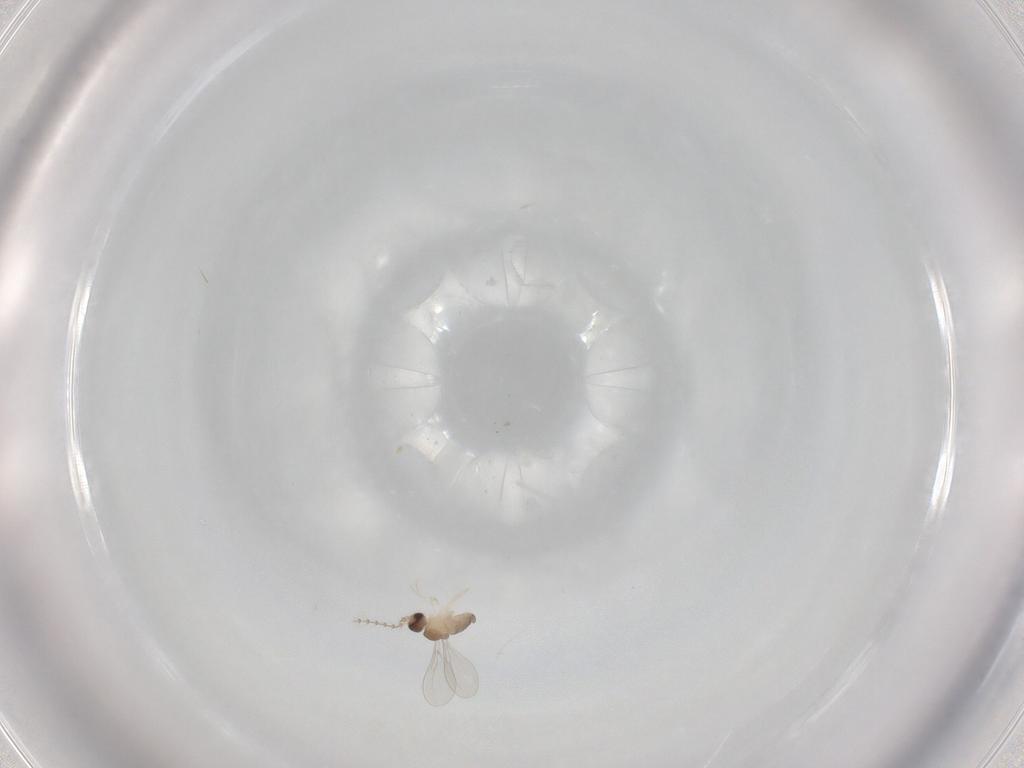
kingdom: Animalia
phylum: Arthropoda
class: Insecta
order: Diptera
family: Cecidomyiidae
